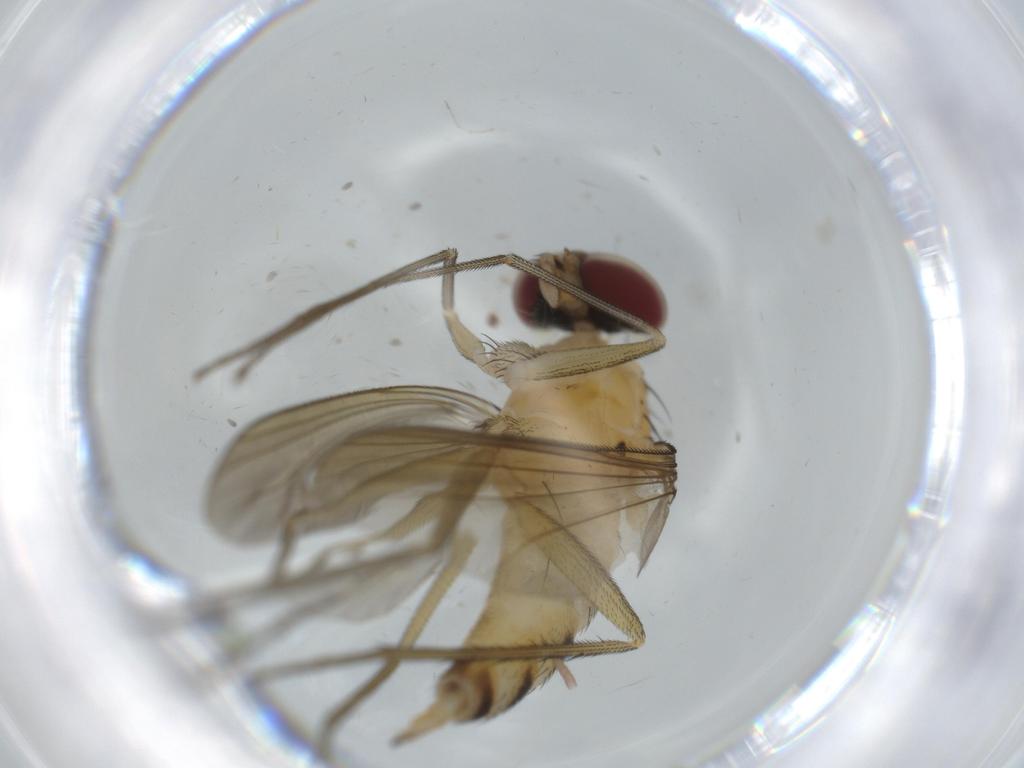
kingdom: Animalia
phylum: Arthropoda
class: Insecta
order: Diptera
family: Dolichopodidae
